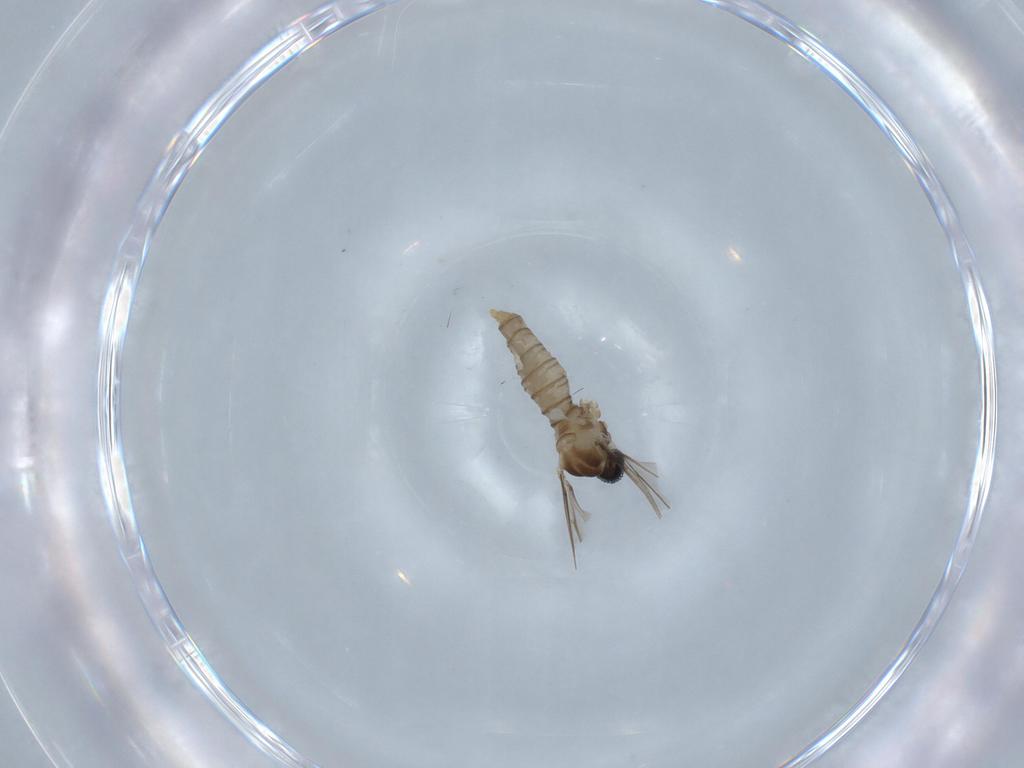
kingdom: Animalia
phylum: Arthropoda
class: Insecta
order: Diptera
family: Cecidomyiidae
